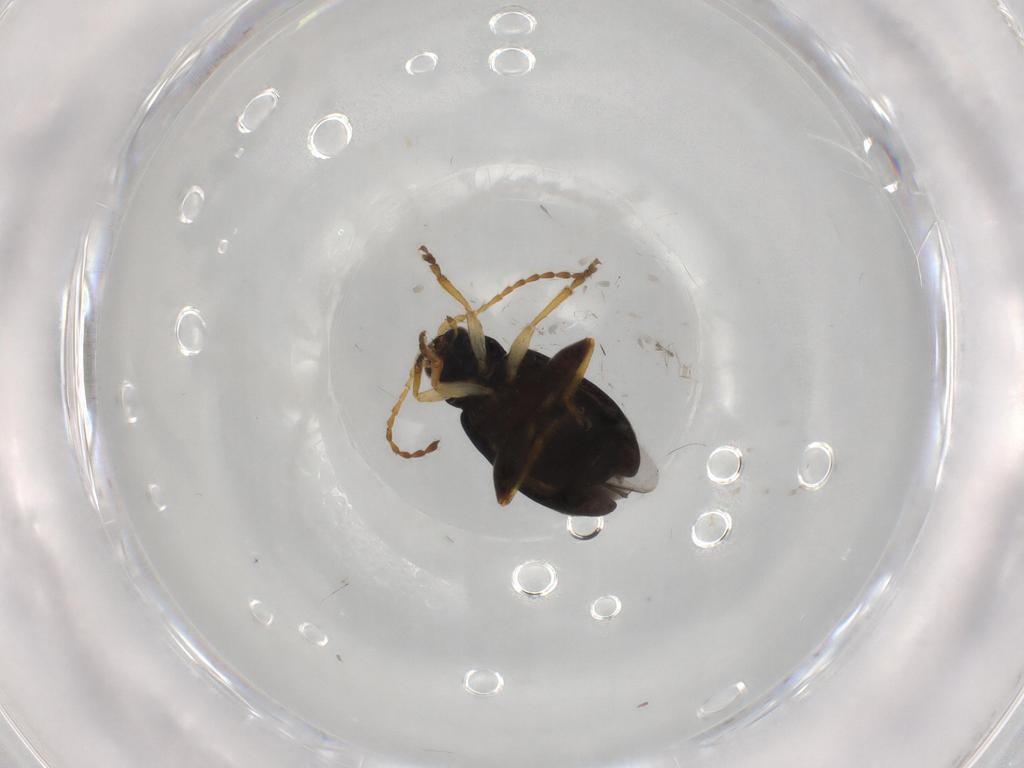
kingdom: Animalia
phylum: Arthropoda
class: Insecta
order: Coleoptera
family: Chrysomelidae
